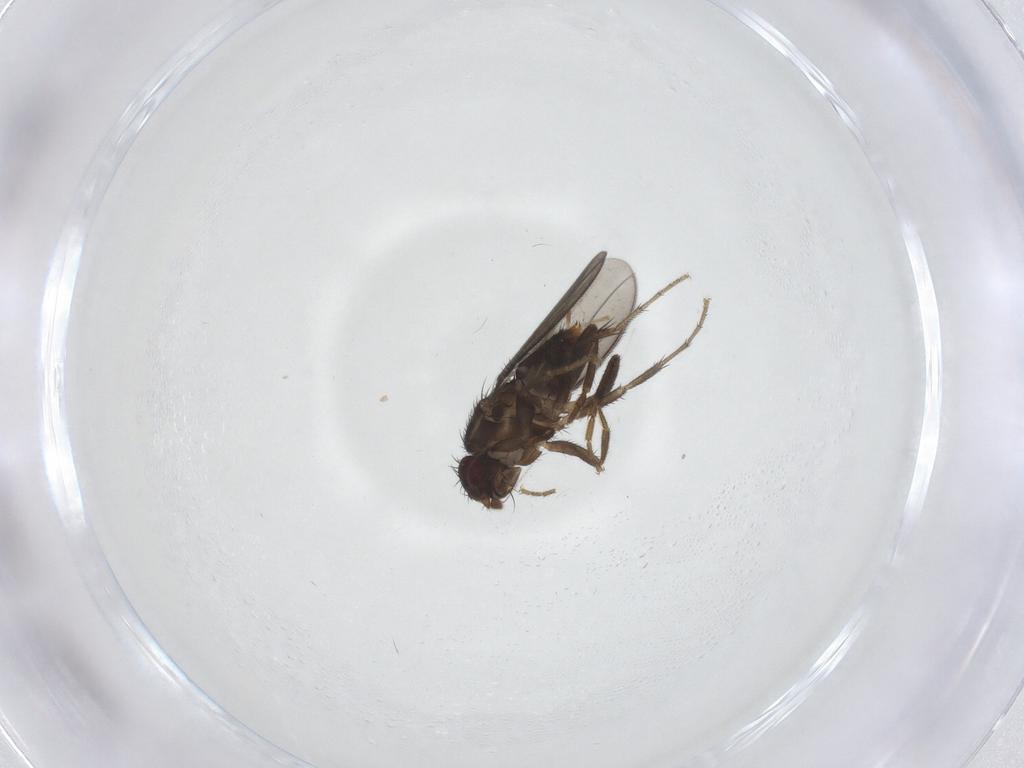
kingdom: Animalia
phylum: Arthropoda
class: Insecta
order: Diptera
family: Sphaeroceridae
